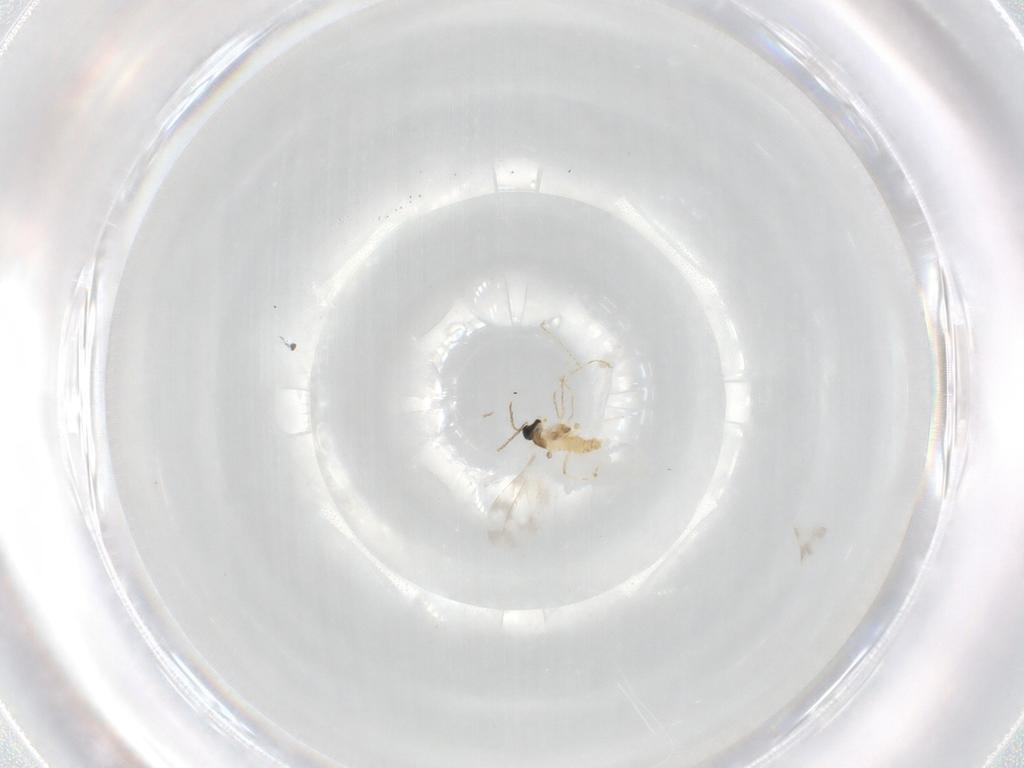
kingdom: Animalia
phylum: Arthropoda
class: Insecta
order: Diptera
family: Cecidomyiidae
